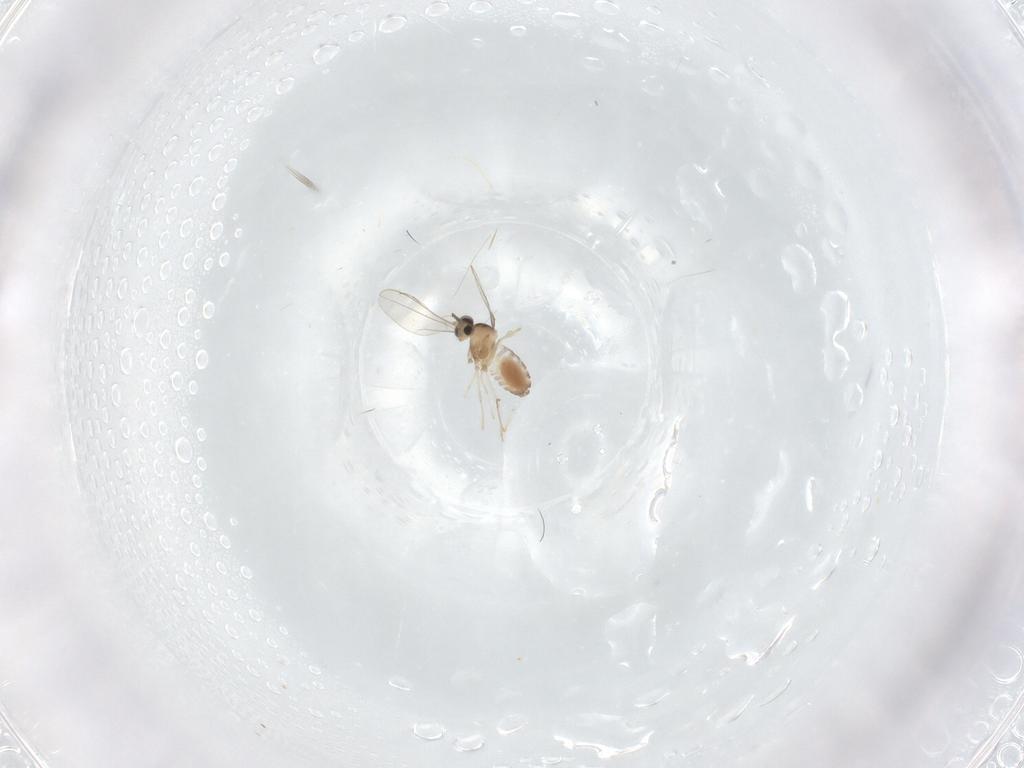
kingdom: Animalia
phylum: Arthropoda
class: Insecta
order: Diptera
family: Cecidomyiidae
